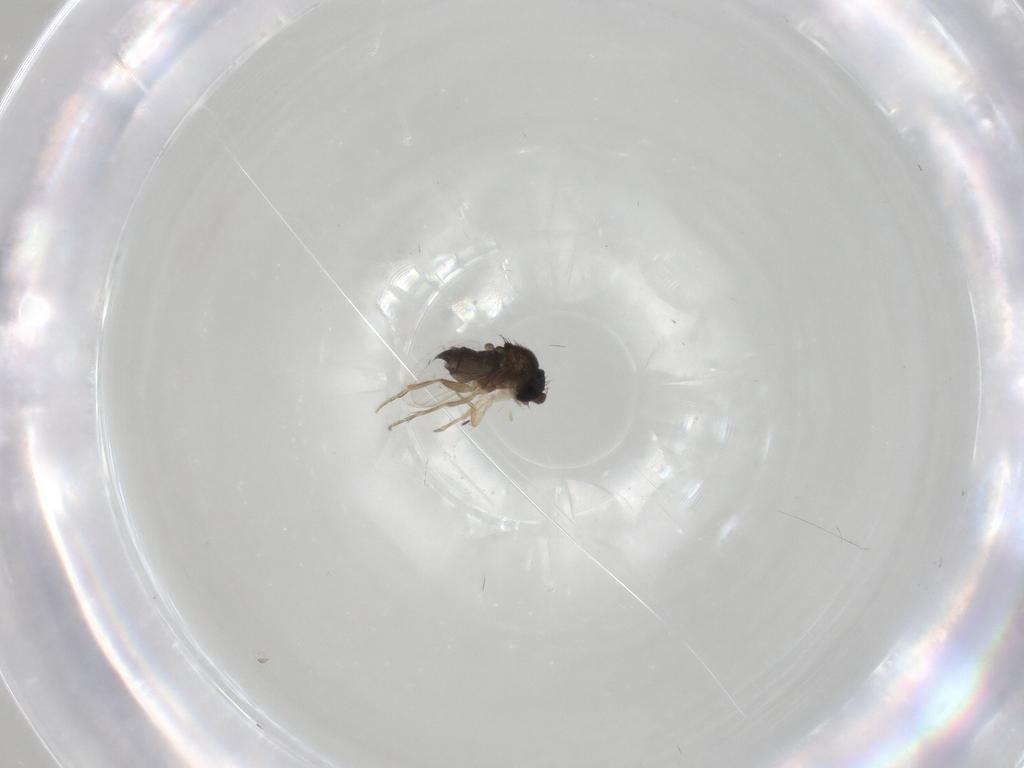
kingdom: Animalia
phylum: Arthropoda
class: Insecta
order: Diptera
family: Phoridae
